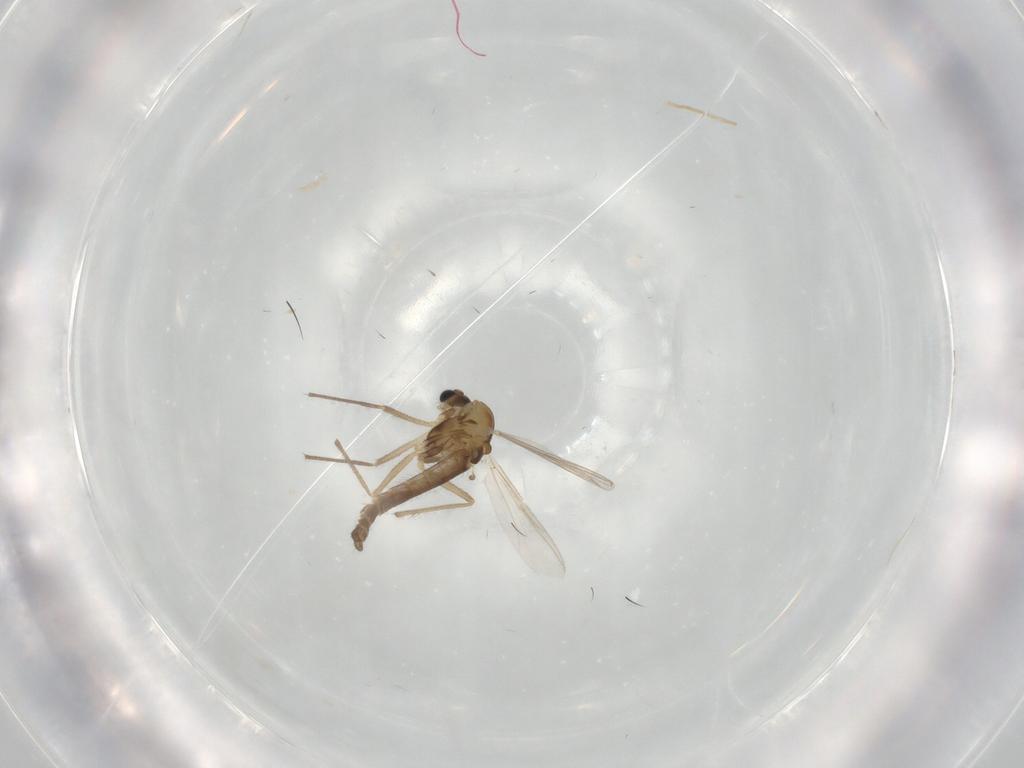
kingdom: Animalia
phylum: Arthropoda
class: Insecta
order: Diptera
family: Chironomidae
